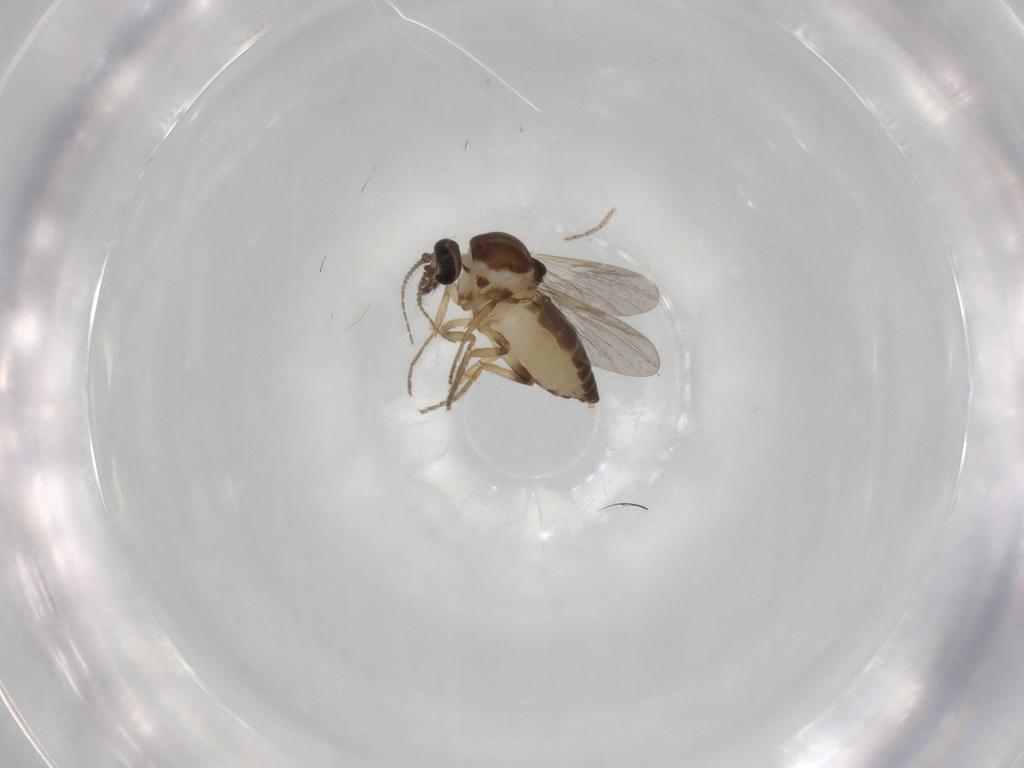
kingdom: Animalia
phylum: Arthropoda
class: Insecta
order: Diptera
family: Ceratopogonidae
